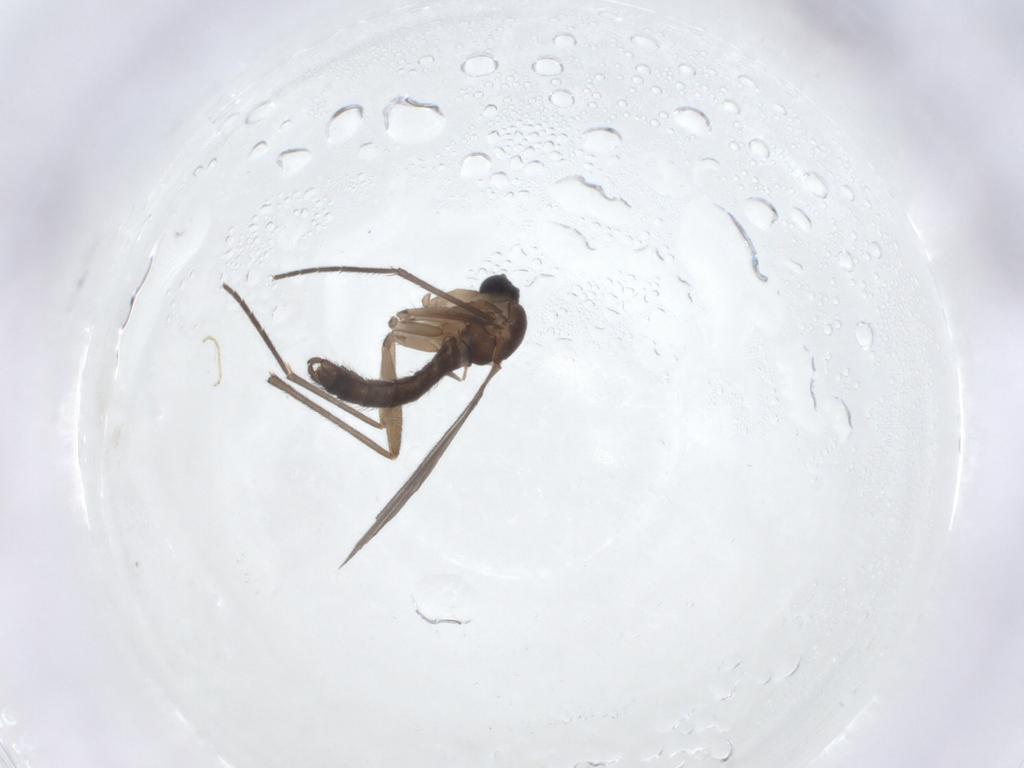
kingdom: Animalia
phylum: Arthropoda
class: Insecta
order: Diptera
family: Sciaridae
